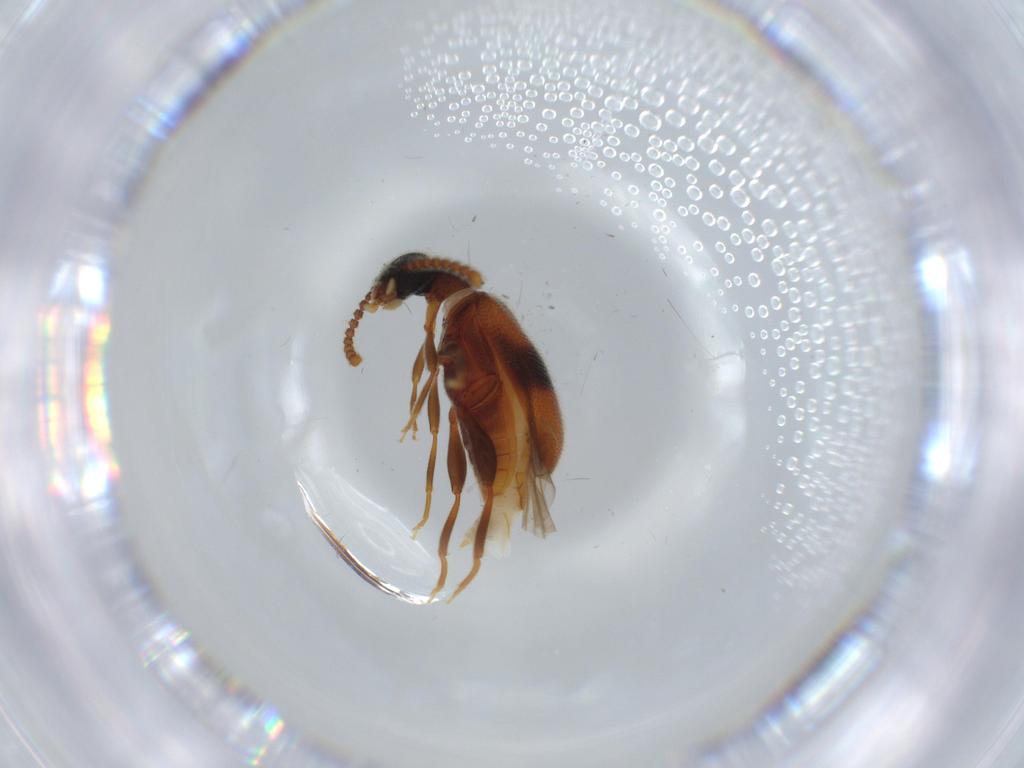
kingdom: Animalia
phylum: Arthropoda
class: Insecta
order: Coleoptera
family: Aderidae
